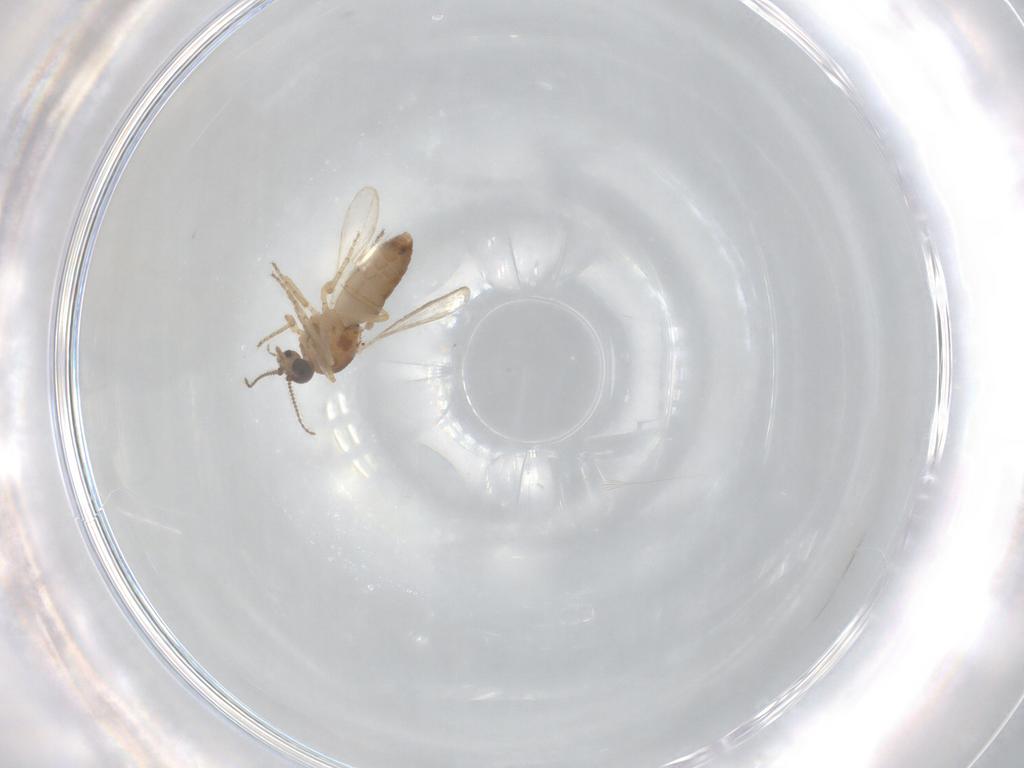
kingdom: Animalia
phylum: Arthropoda
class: Insecta
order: Diptera
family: Ceratopogonidae
